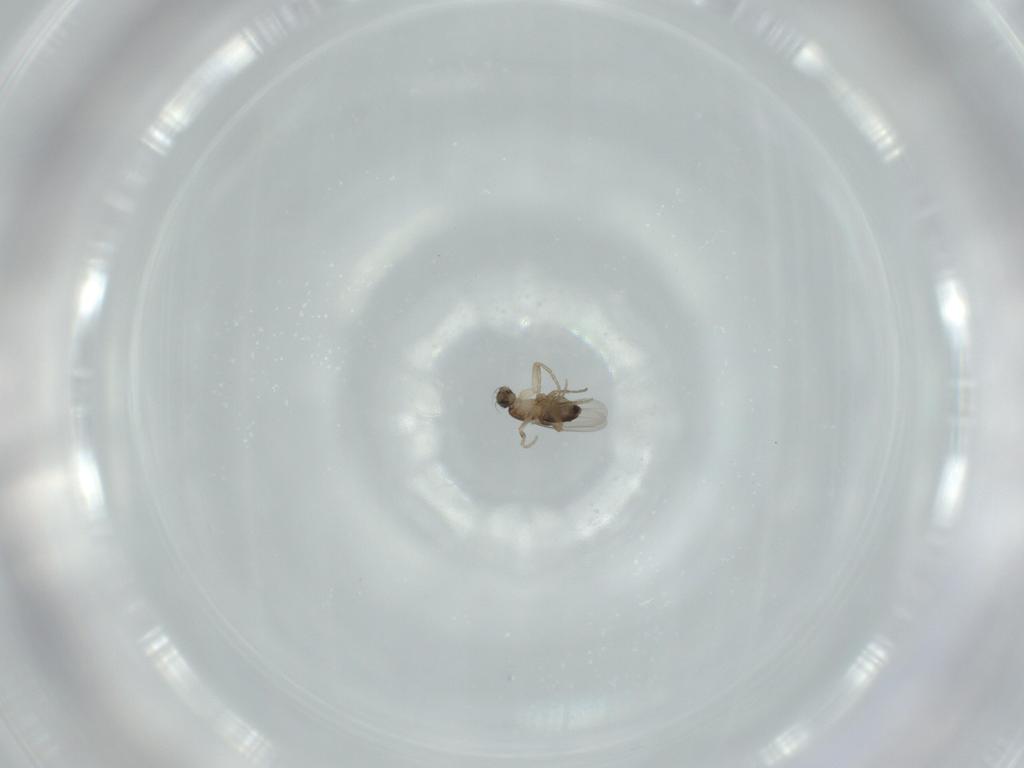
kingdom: Animalia
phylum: Arthropoda
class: Insecta
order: Diptera
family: Phoridae
